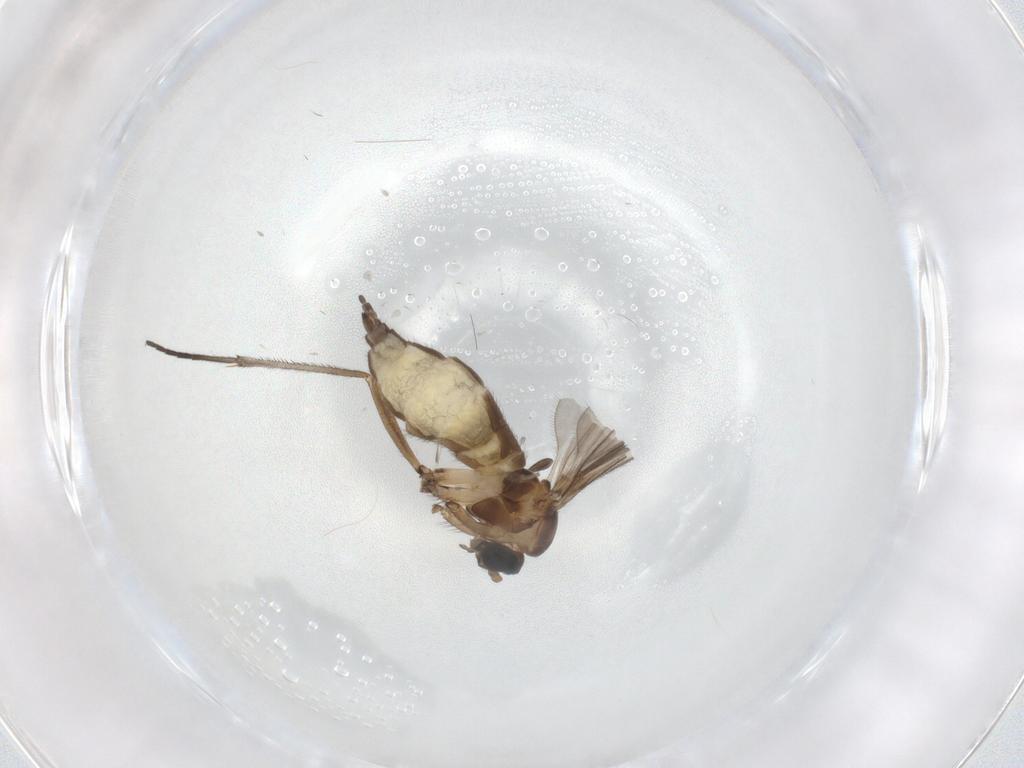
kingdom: Animalia
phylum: Arthropoda
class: Insecta
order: Diptera
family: Sciaridae
